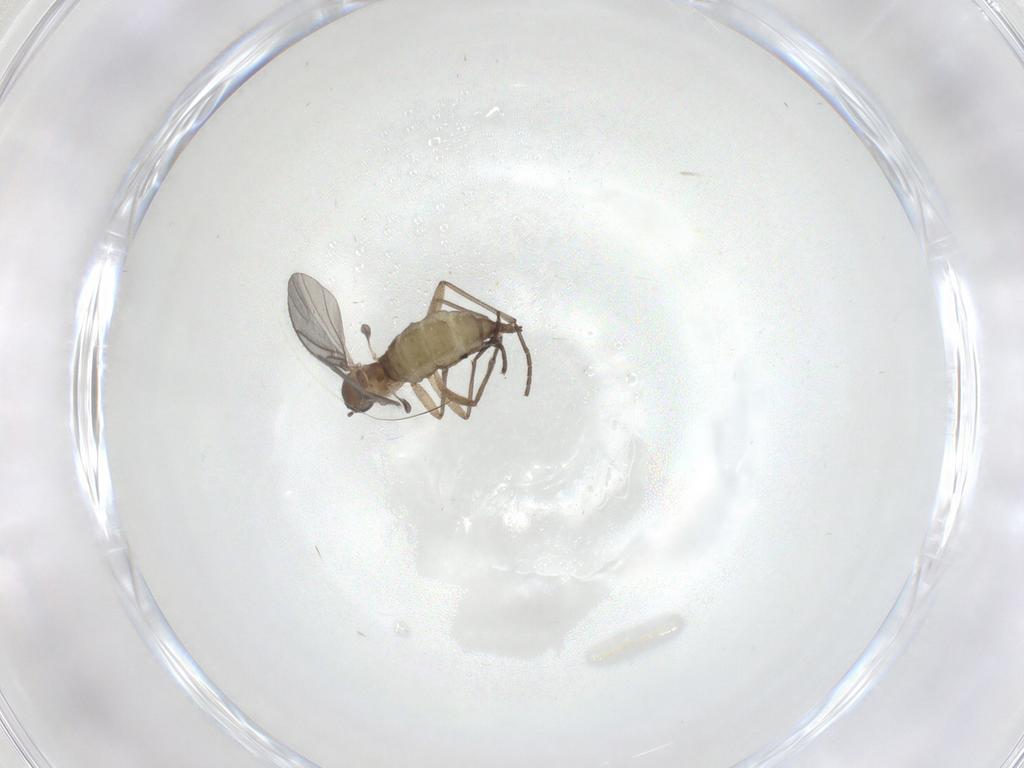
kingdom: Animalia
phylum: Arthropoda
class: Insecta
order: Diptera
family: Sciaridae
